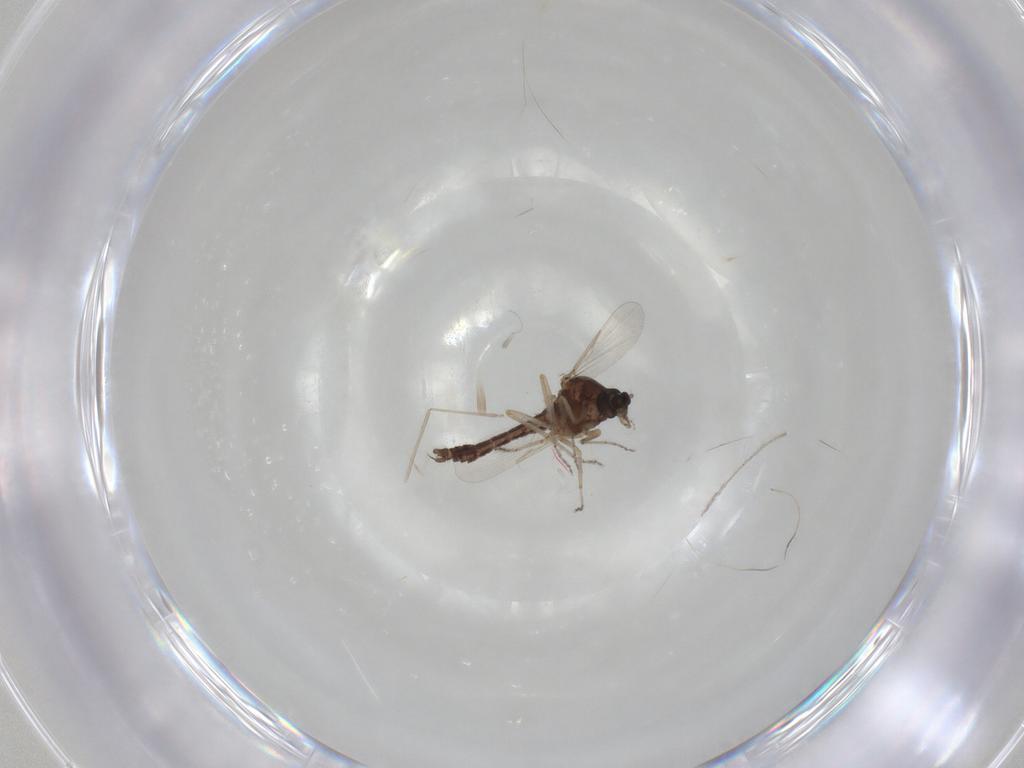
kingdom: Animalia
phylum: Arthropoda
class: Insecta
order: Diptera
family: Ceratopogonidae
